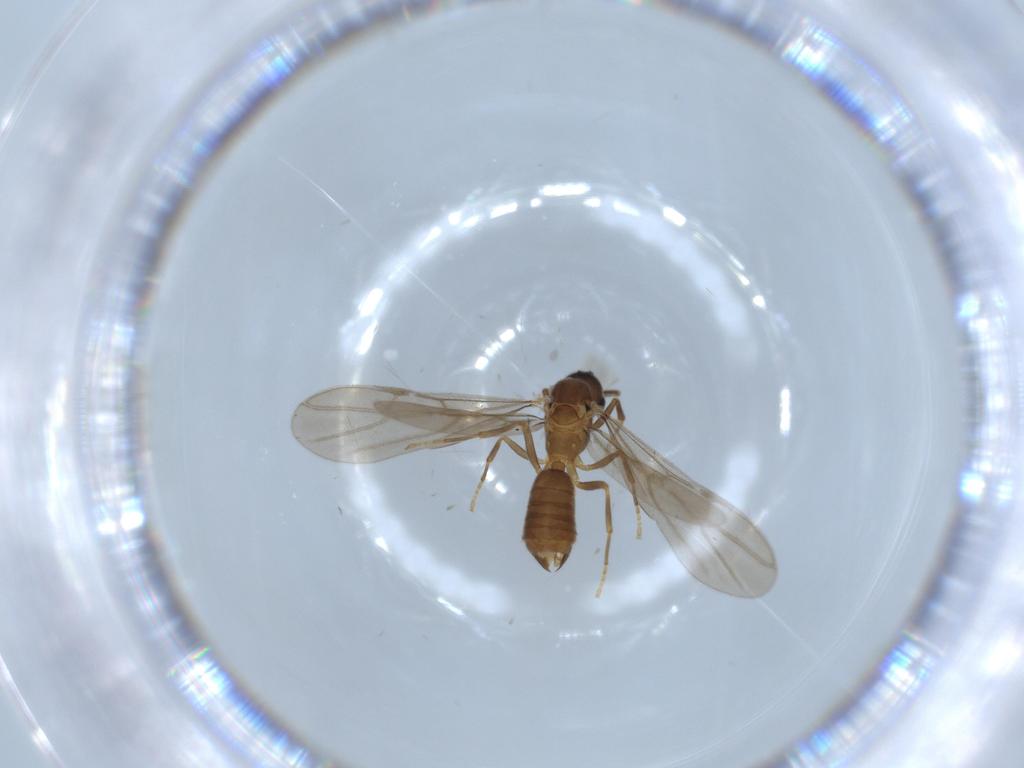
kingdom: Animalia
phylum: Arthropoda
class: Insecta
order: Hymenoptera
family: Formicidae
